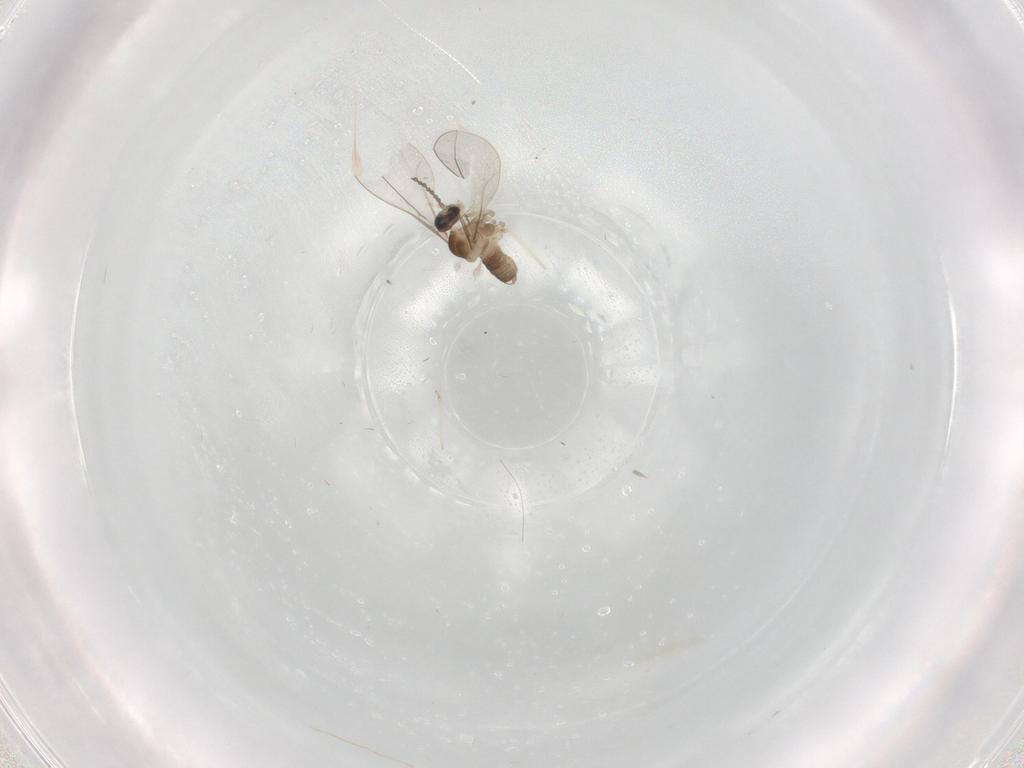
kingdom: Animalia
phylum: Arthropoda
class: Insecta
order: Diptera
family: Cecidomyiidae
